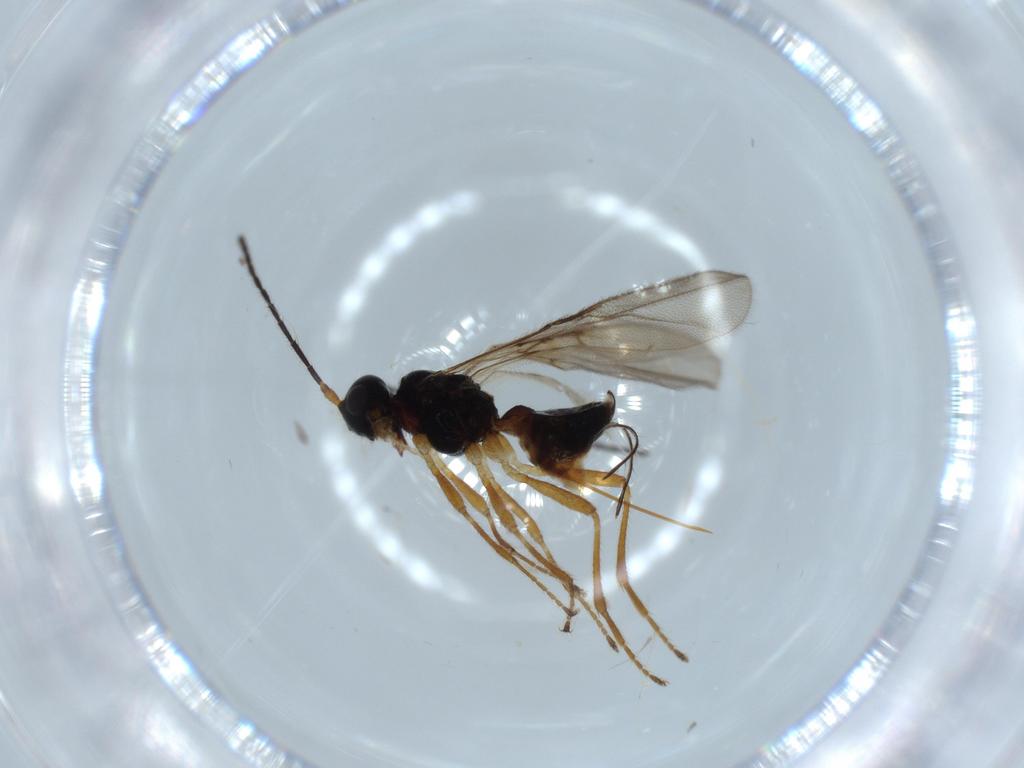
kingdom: Animalia
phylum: Arthropoda
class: Insecta
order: Hymenoptera
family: Braconidae
